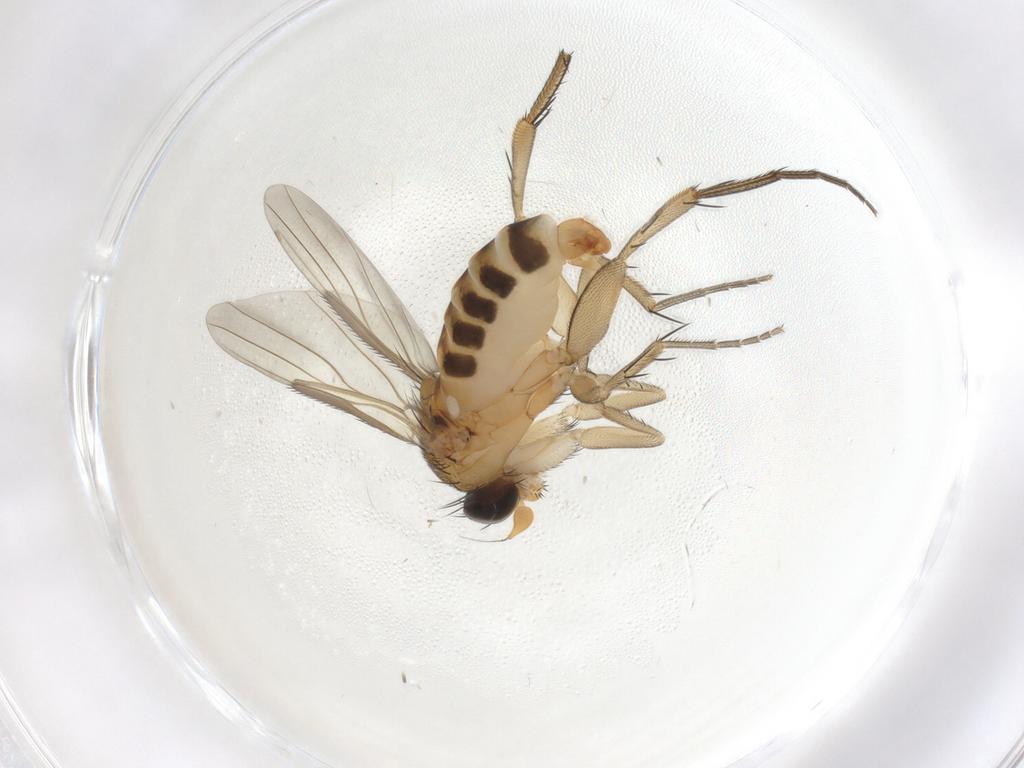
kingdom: Animalia
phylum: Arthropoda
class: Insecta
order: Diptera
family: Phoridae
